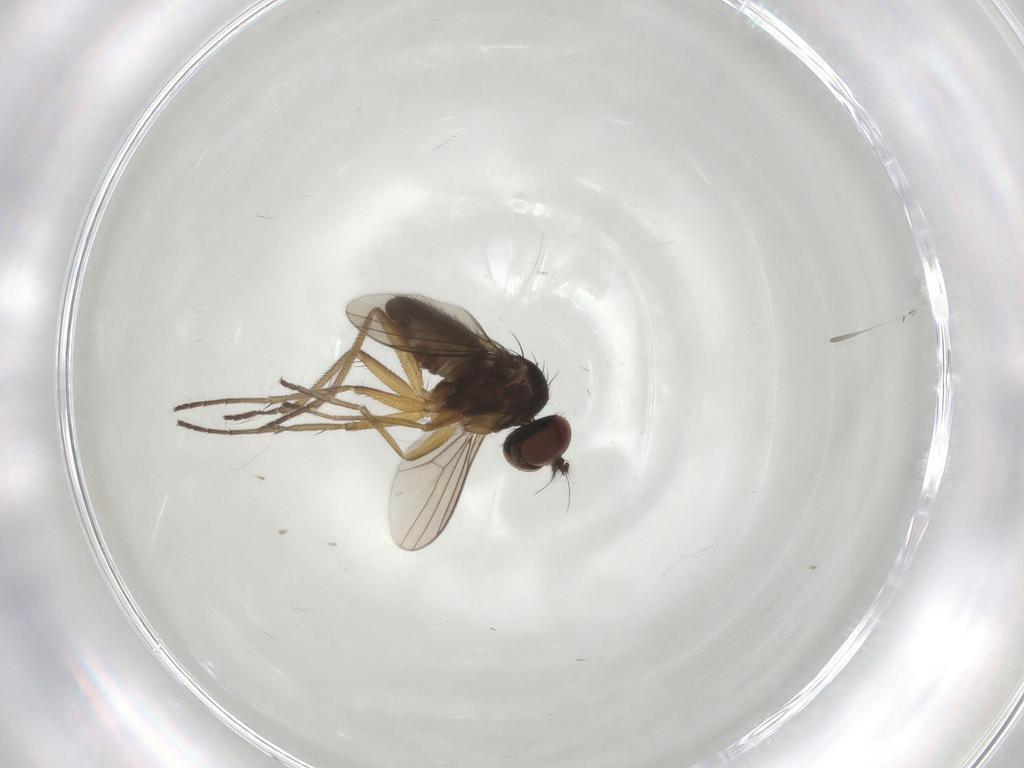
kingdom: Animalia
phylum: Arthropoda
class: Insecta
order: Diptera
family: Dolichopodidae
